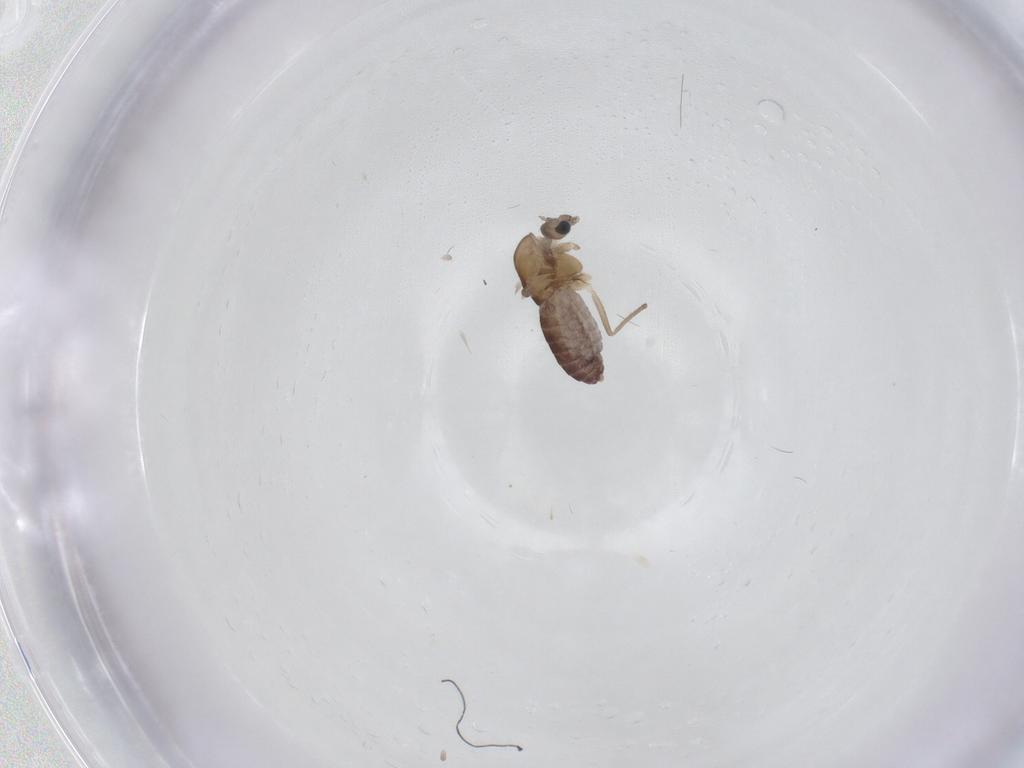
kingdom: Animalia
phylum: Arthropoda
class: Insecta
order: Diptera
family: Chironomidae
